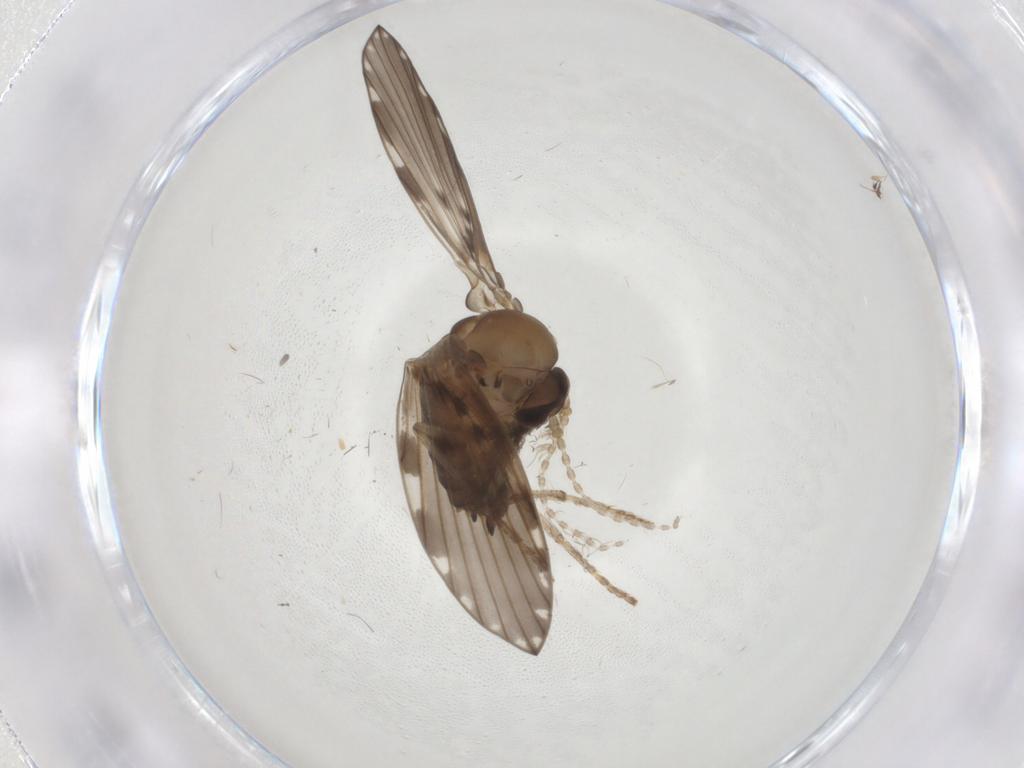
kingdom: Animalia
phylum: Arthropoda
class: Insecta
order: Diptera
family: Psychodidae
